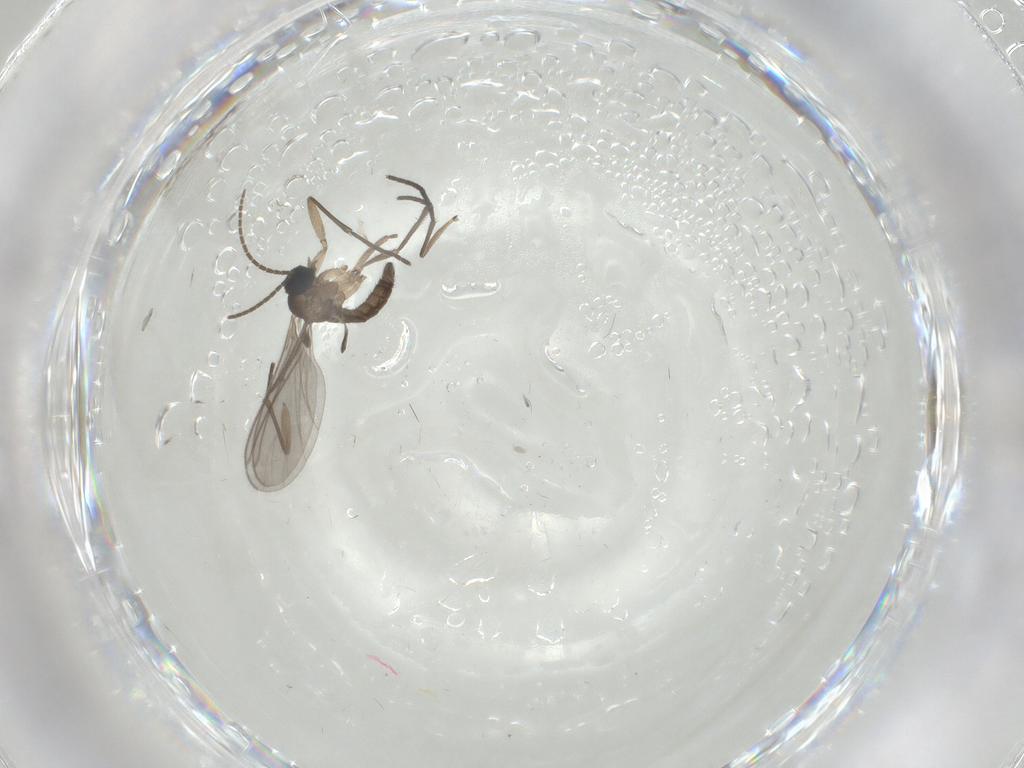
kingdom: Animalia
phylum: Arthropoda
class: Insecta
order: Diptera
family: Sciaridae
